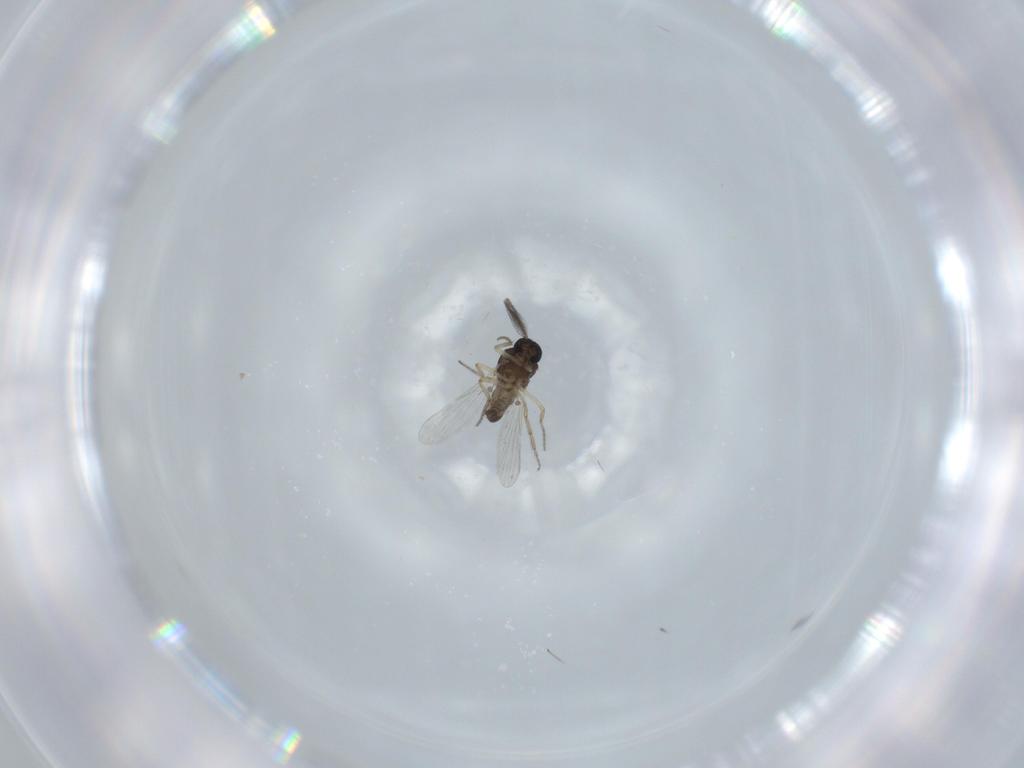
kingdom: Animalia
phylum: Arthropoda
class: Insecta
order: Diptera
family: Ceratopogonidae
